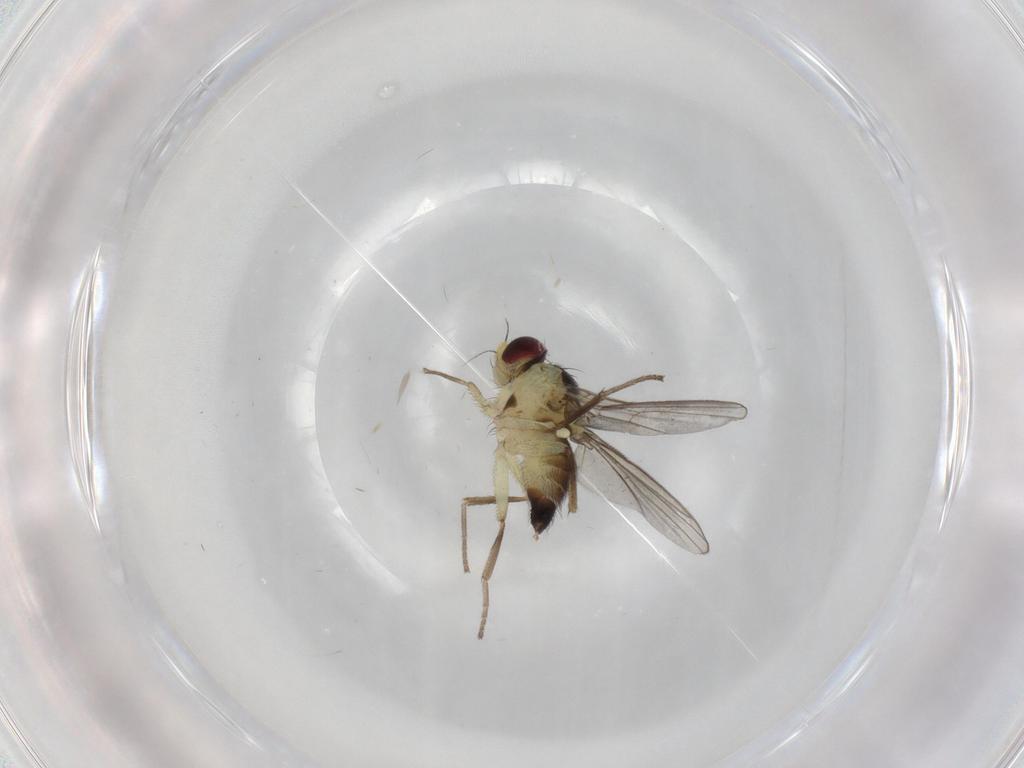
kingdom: Animalia
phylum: Arthropoda
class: Insecta
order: Diptera
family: Agromyzidae
